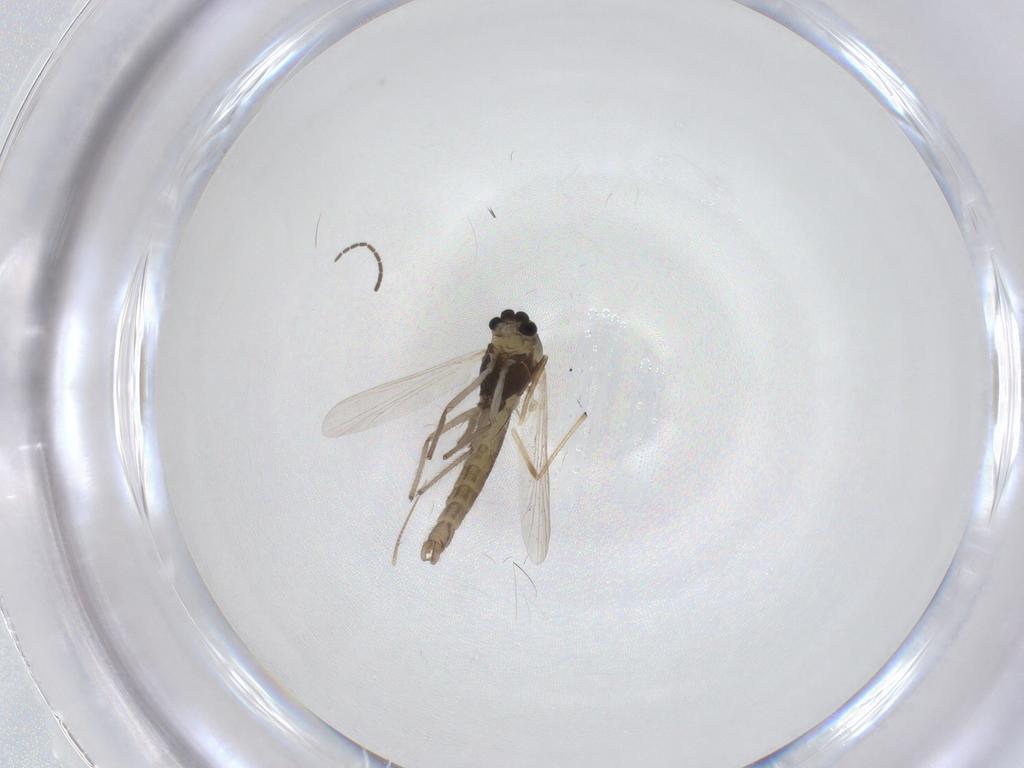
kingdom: Animalia
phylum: Arthropoda
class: Insecta
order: Diptera
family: Chironomidae
